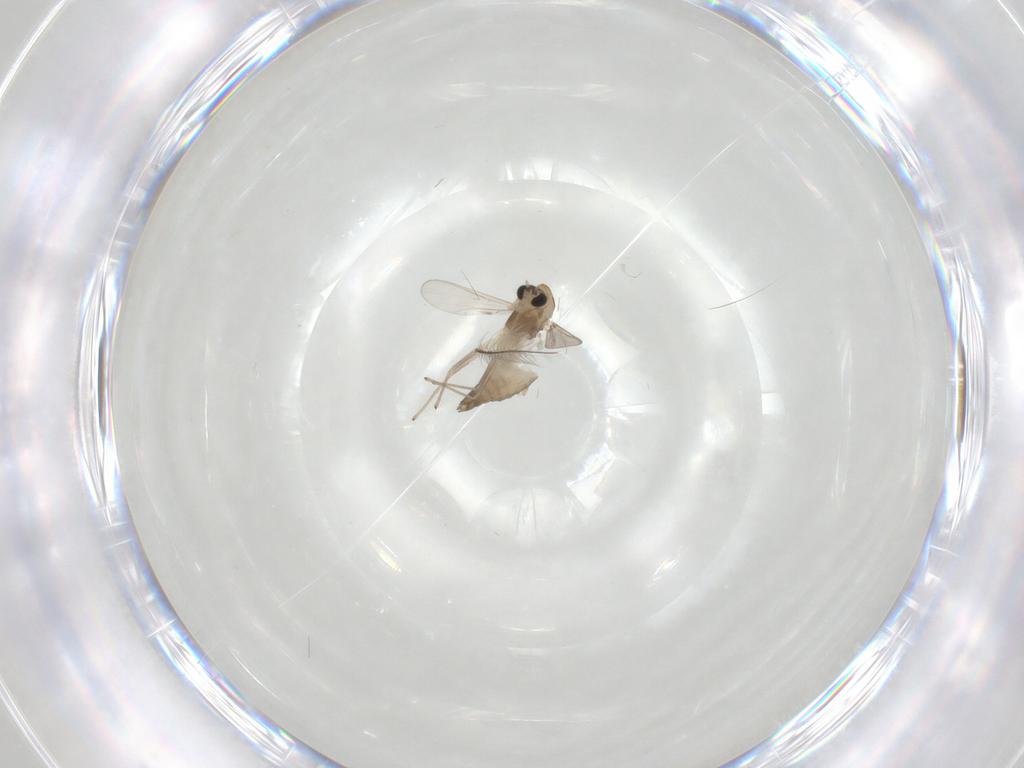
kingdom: Animalia
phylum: Arthropoda
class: Insecta
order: Diptera
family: Chironomidae
